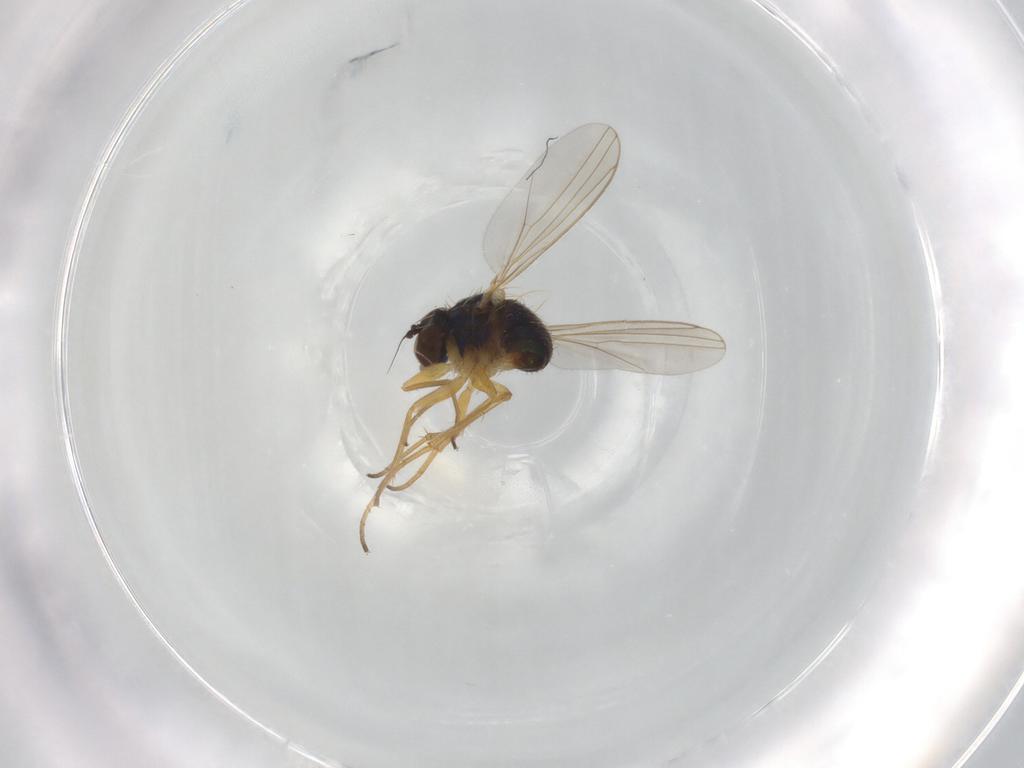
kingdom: Animalia
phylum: Arthropoda
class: Insecta
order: Diptera
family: Dolichopodidae
